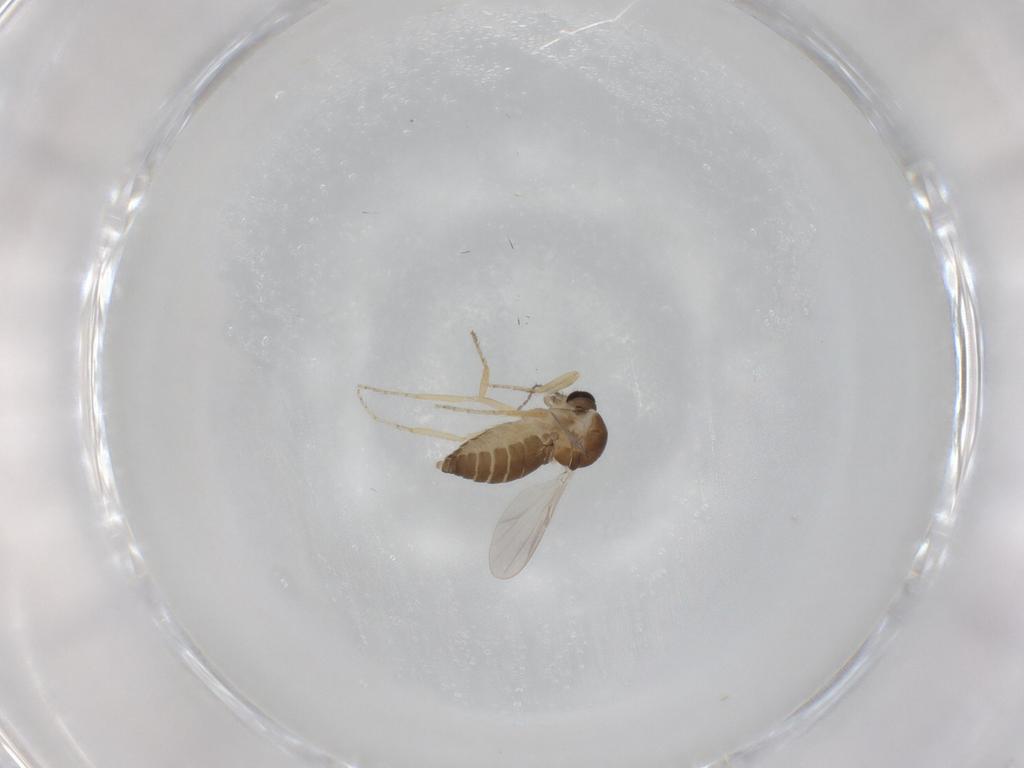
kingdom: Animalia
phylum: Arthropoda
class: Insecta
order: Diptera
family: Ceratopogonidae
